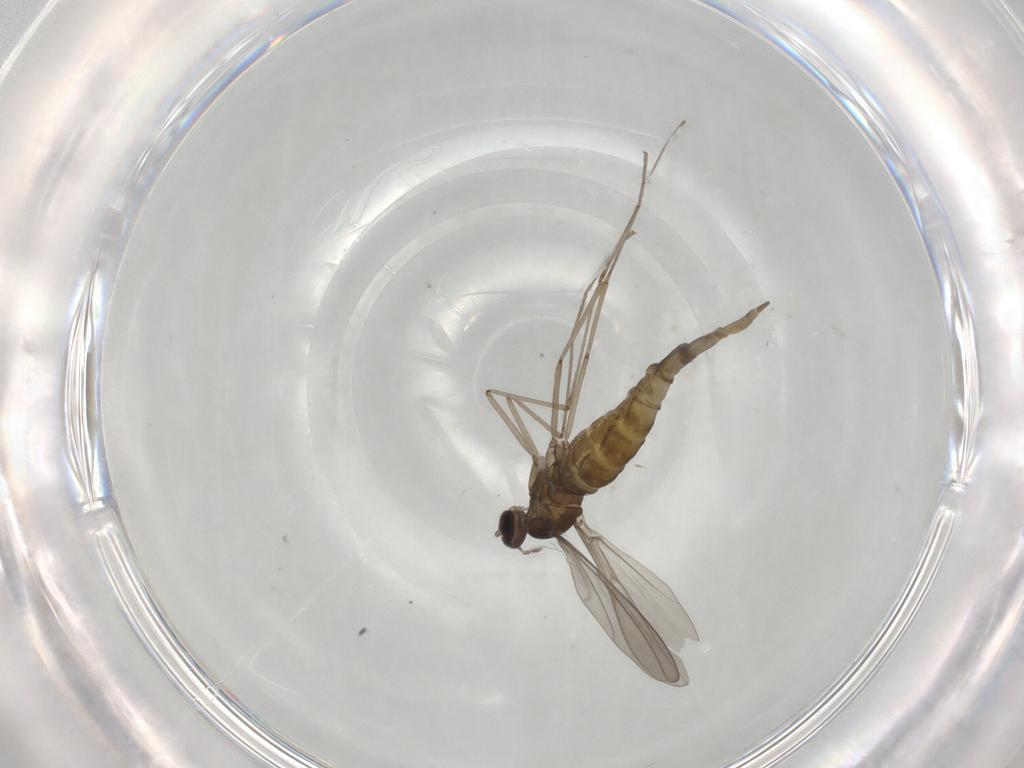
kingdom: Animalia
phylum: Arthropoda
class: Insecta
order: Diptera
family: Cecidomyiidae
